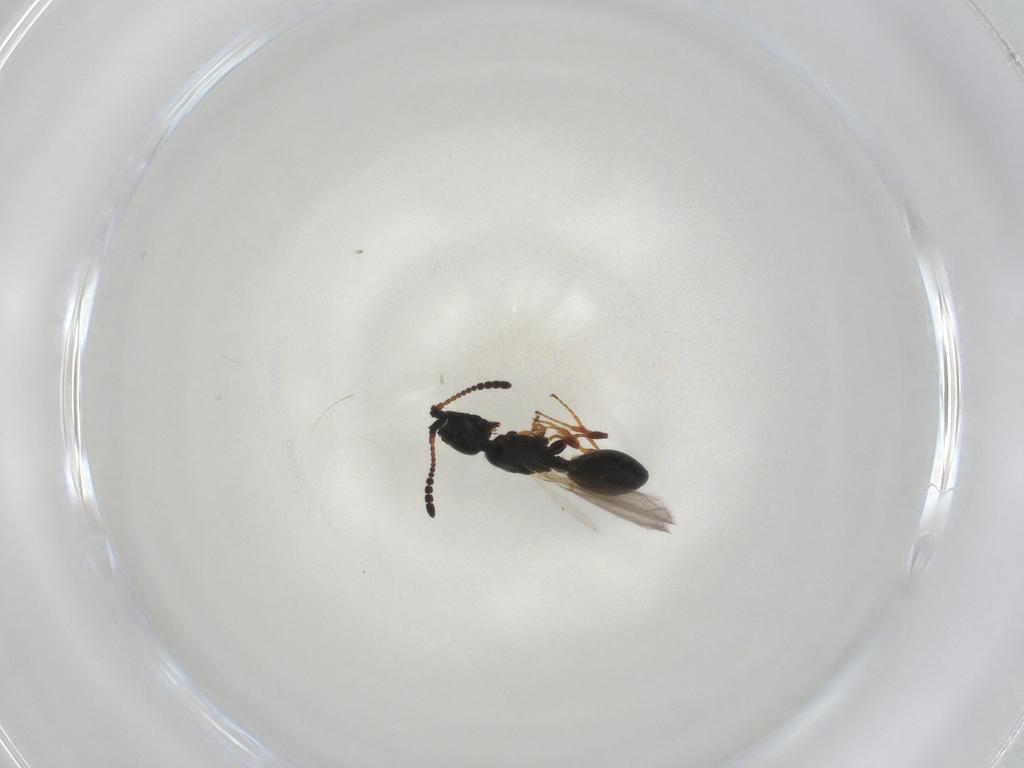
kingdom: Animalia
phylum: Arthropoda
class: Insecta
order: Hymenoptera
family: Diapriidae
